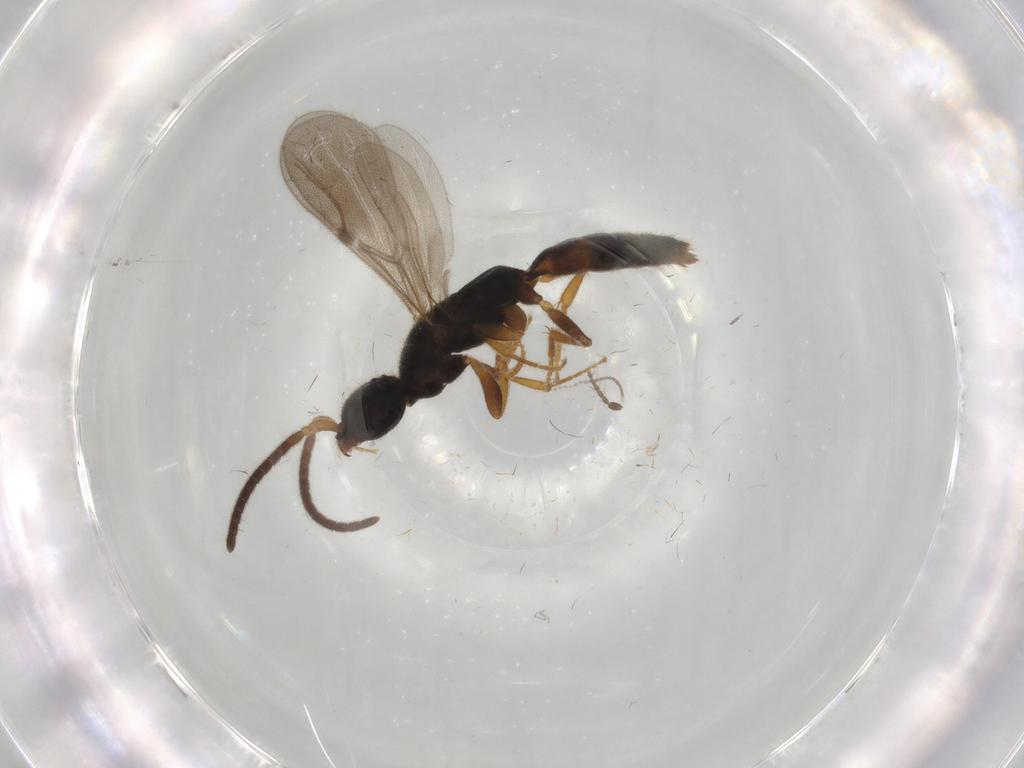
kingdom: Animalia
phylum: Arthropoda
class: Insecta
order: Hymenoptera
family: Bethylidae
